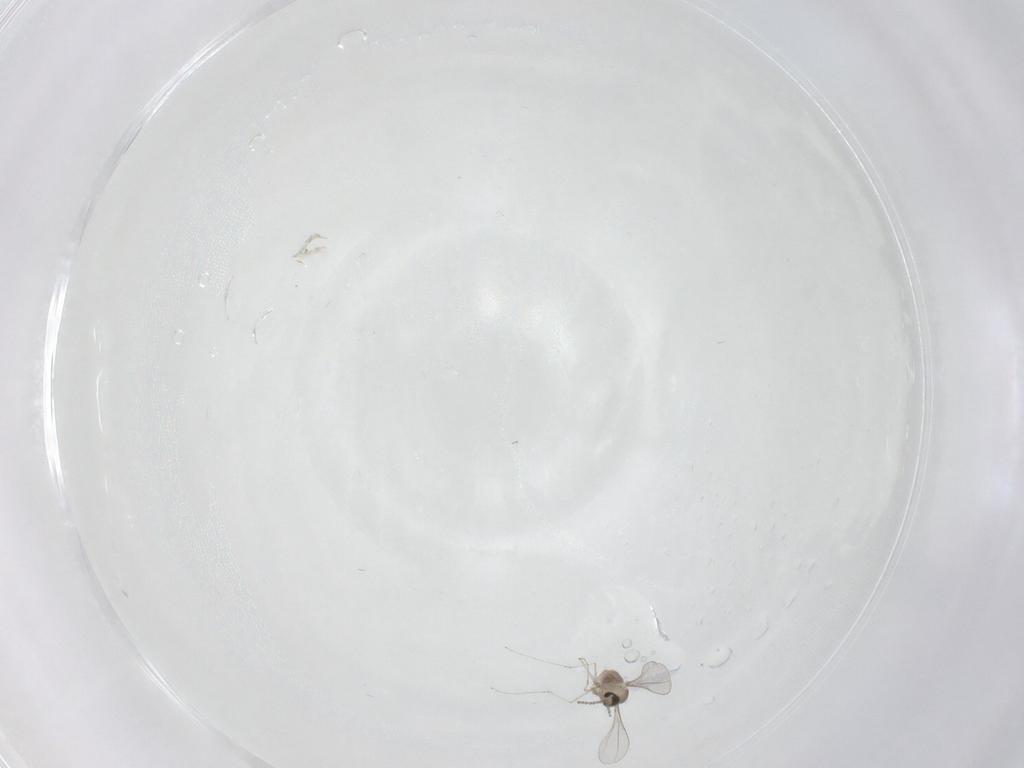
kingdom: Animalia
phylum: Arthropoda
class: Insecta
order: Diptera
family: Cecidomyiidae
